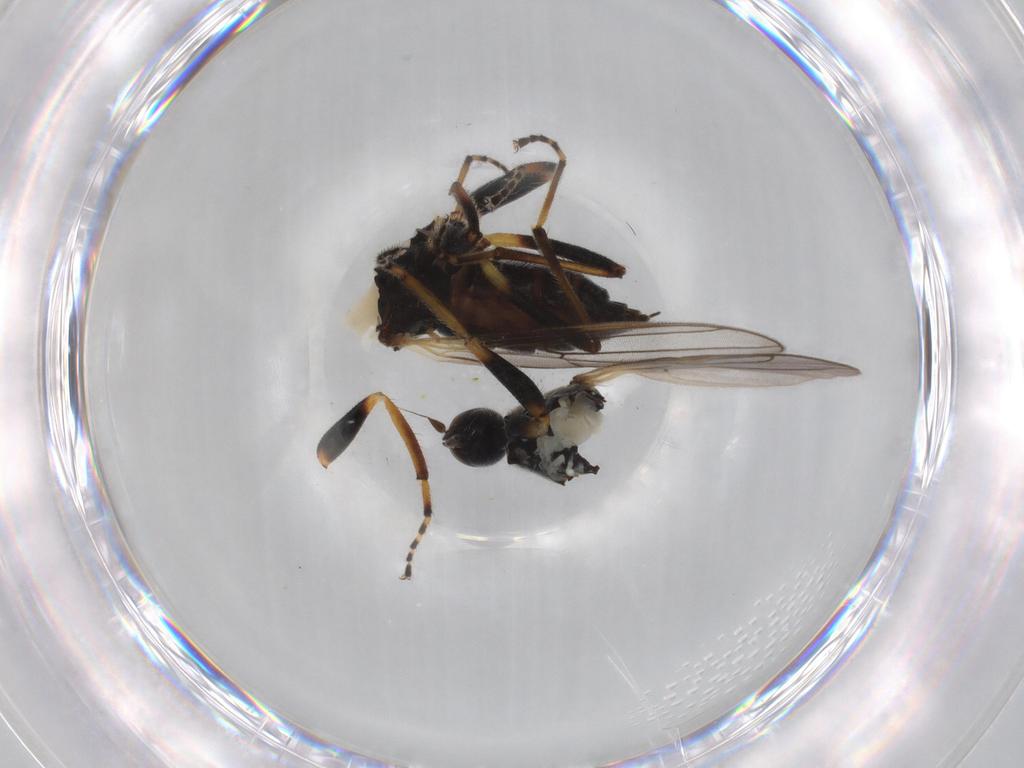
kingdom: Animalia
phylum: Arthropoda
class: Insecta
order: Diptera
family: Hybotidae
